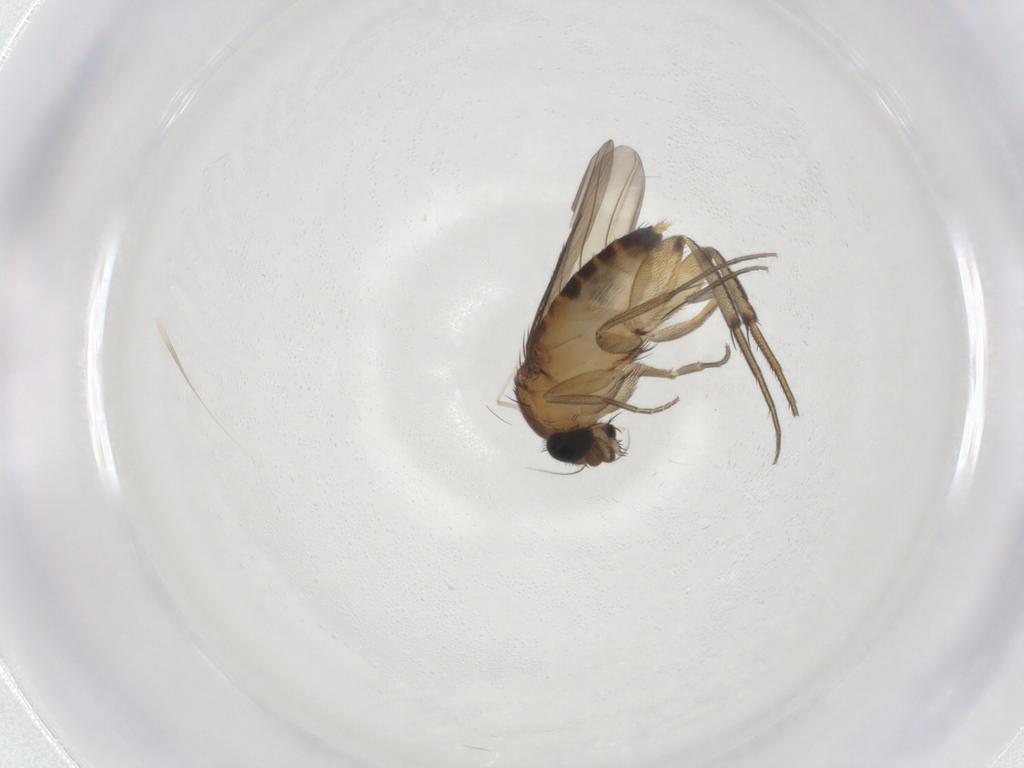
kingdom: Animalia
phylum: Arthropoda
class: Insecta
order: Diptera
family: Phoridae
